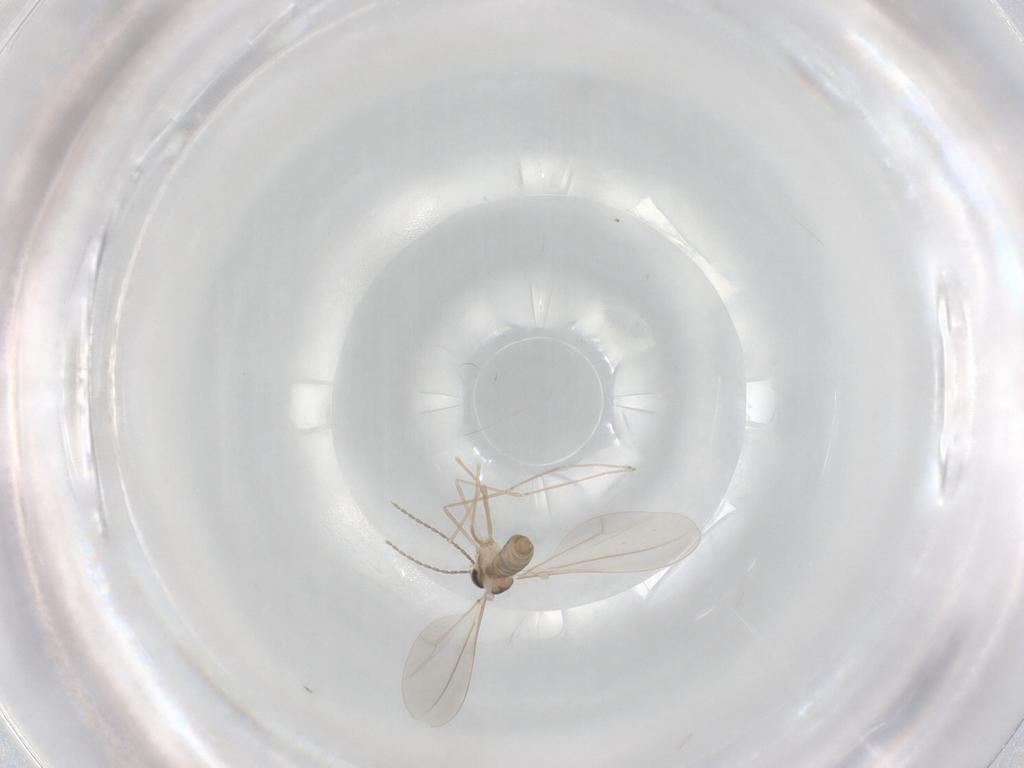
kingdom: Animalia
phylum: Arthropoda
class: Insecta
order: Diptera
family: Cecidomyiidae
